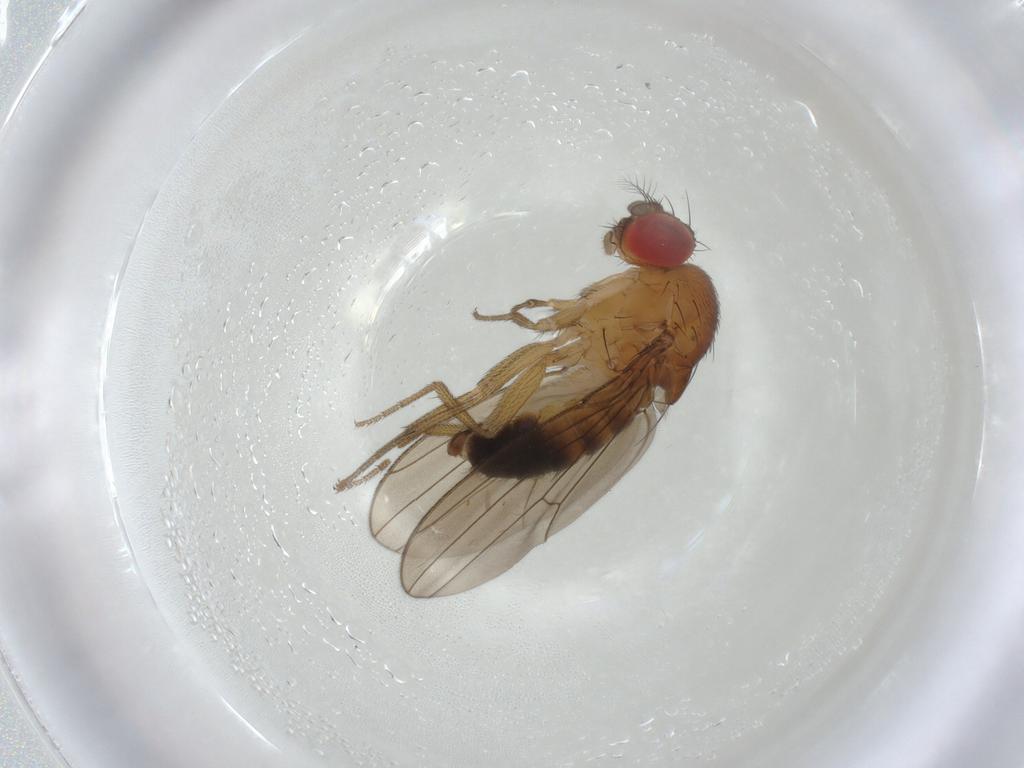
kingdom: Animalia
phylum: Arthropoda
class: Insecta
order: Diptera
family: Drosophilidae
